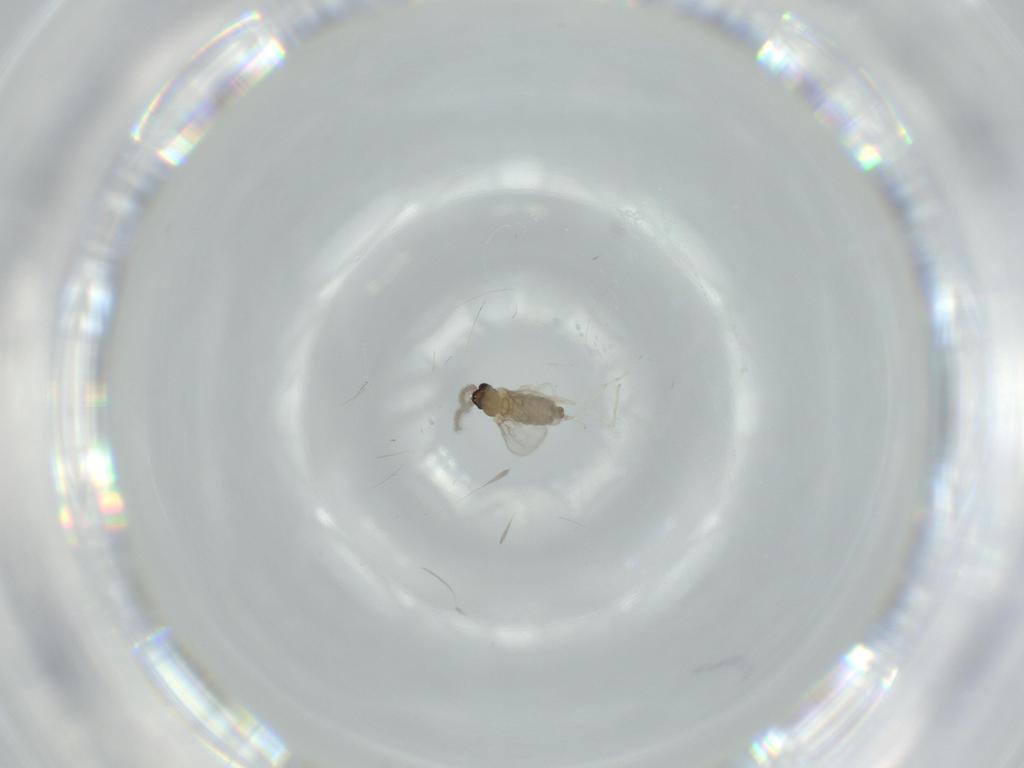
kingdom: Animalia
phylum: Arthropoda
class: Insecta
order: Diptera
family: Cecidomyiidae
